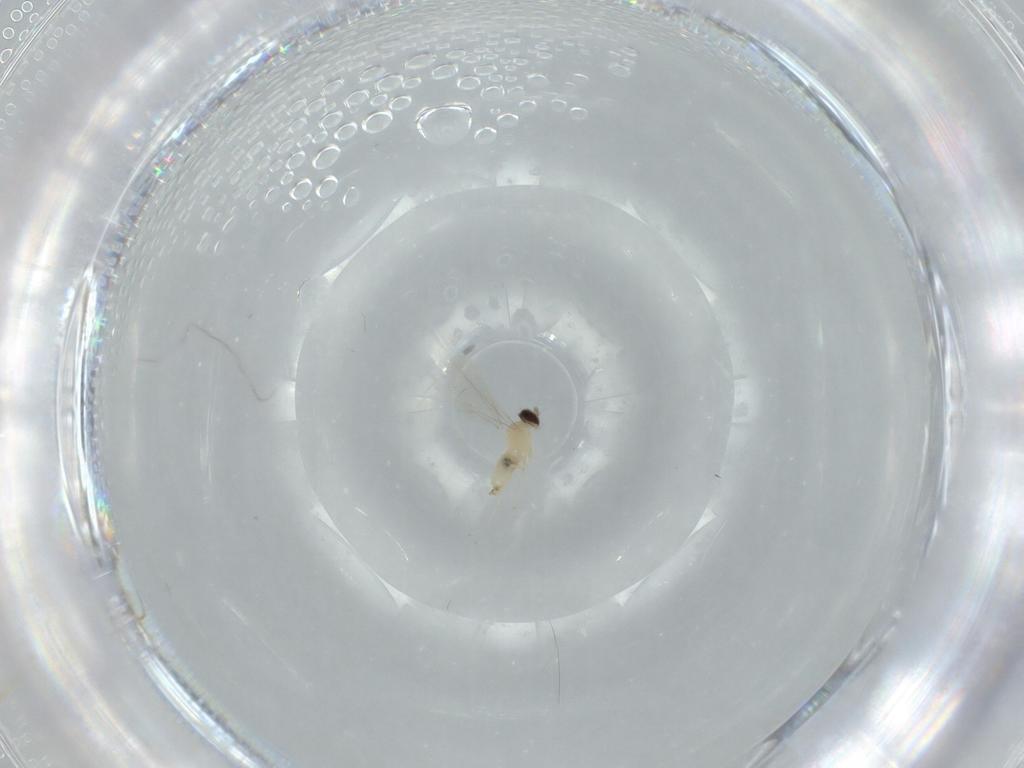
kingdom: Animalia
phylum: Arthropoda
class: Insecta
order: Diptera
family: Cecidomyiidae
